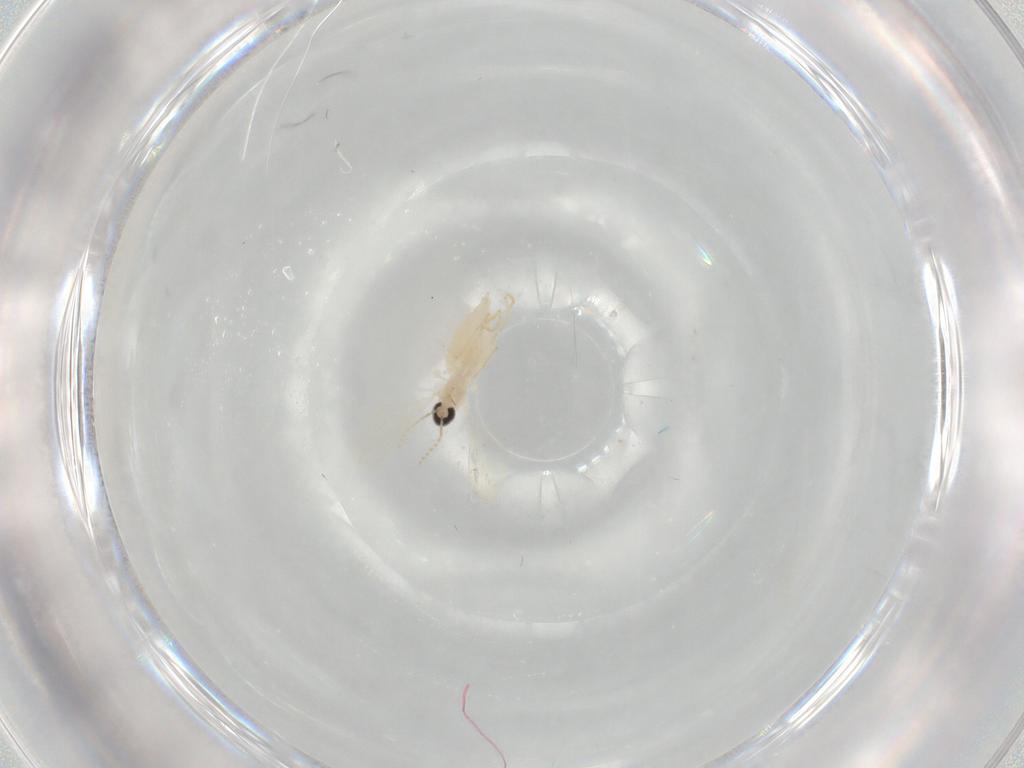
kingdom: Animalia
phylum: Arthropoda
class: Insecta
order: Diptera
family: Cecidomyiidae
